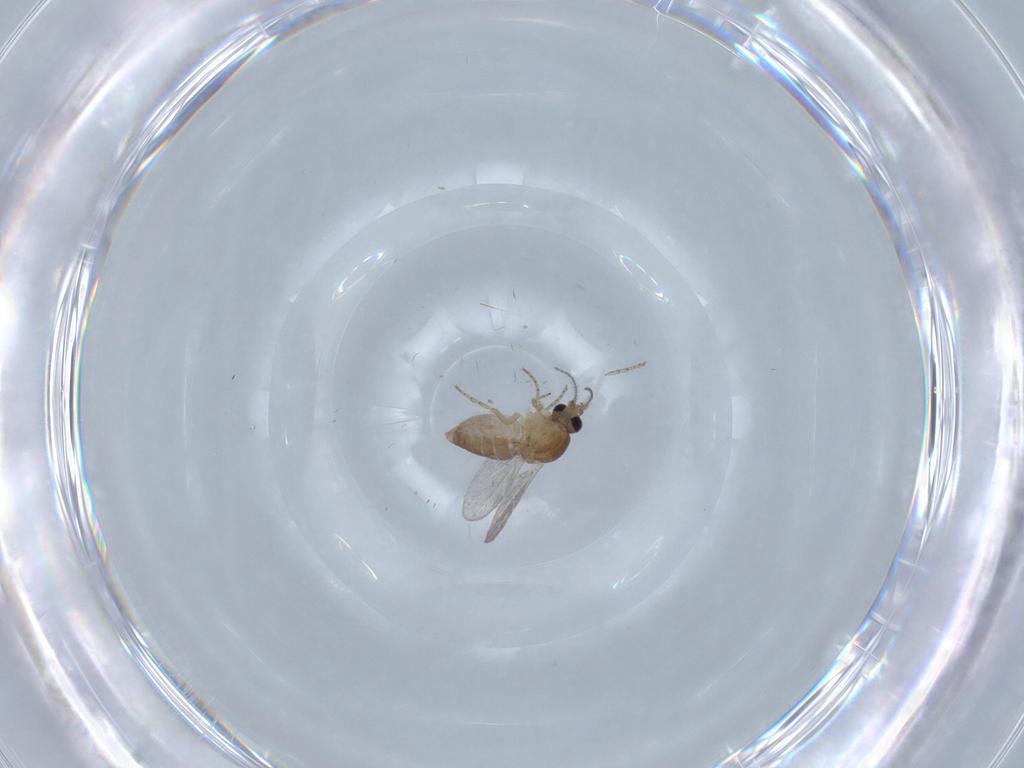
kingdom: Animalia
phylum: Arthropoda
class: Insecta
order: Diptera
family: Ceratopogonidae
